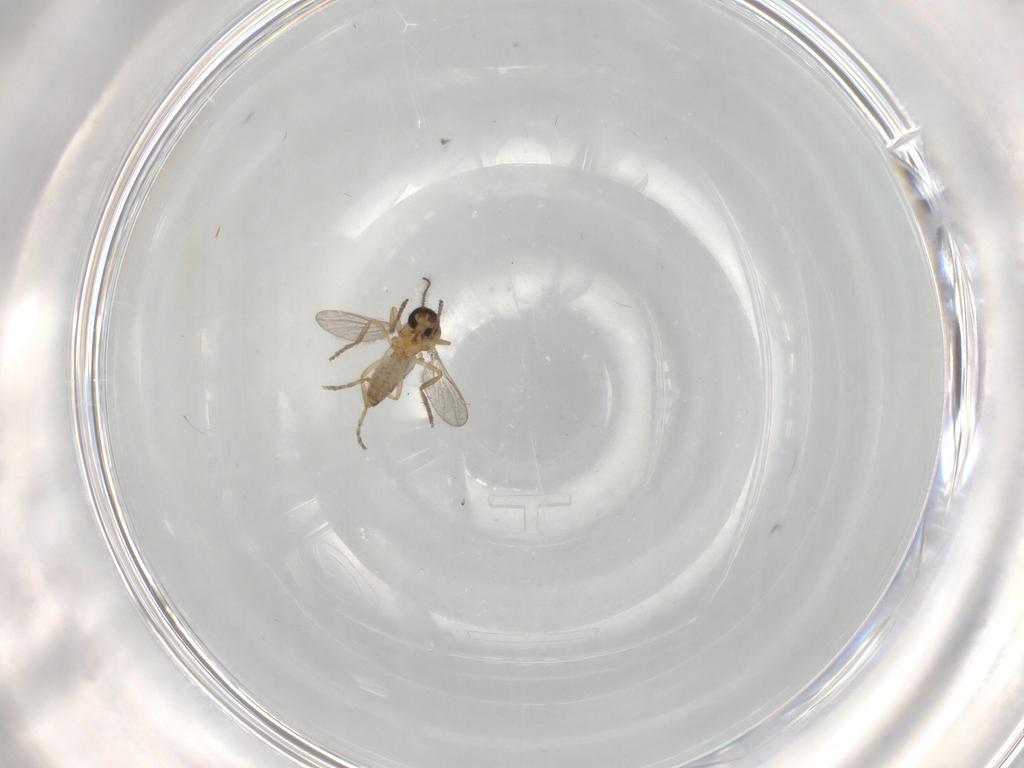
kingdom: Animalia
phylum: Arthropoda
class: Insecta
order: Diptera
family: Ceratopogonidae
